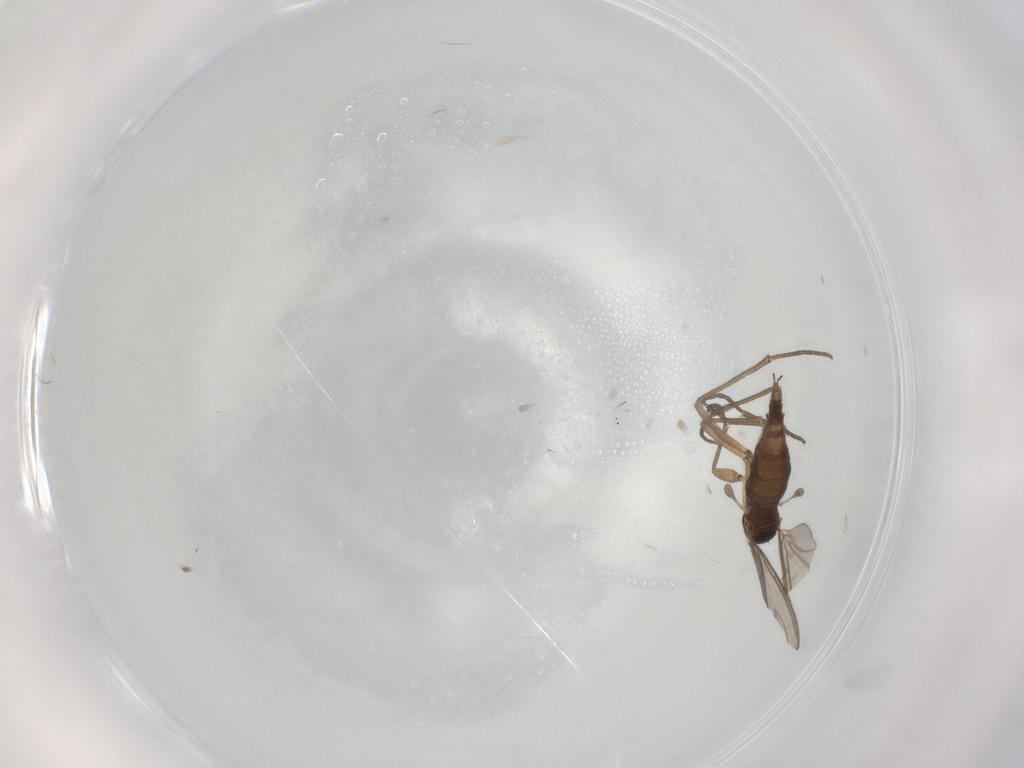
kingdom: Animalia
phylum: Arthropoda
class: Insecta
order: Diptera
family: Sciaridae
